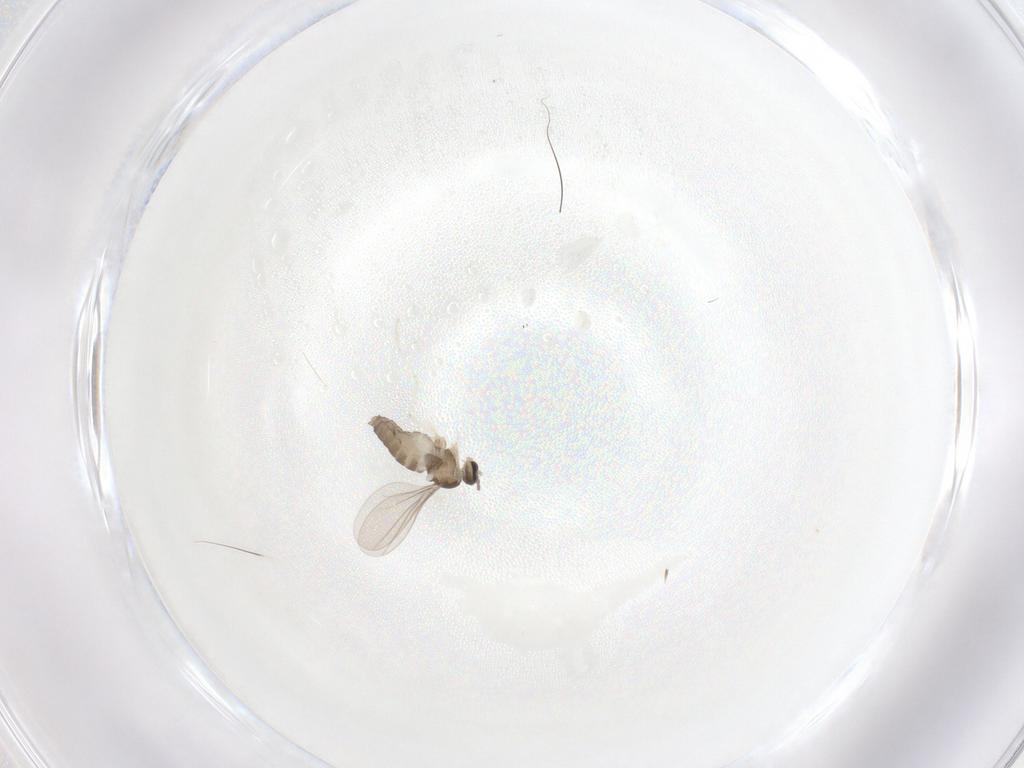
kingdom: Animalia
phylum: Arthropoda
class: Insecta
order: Diptera
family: Cecidomyiidae
